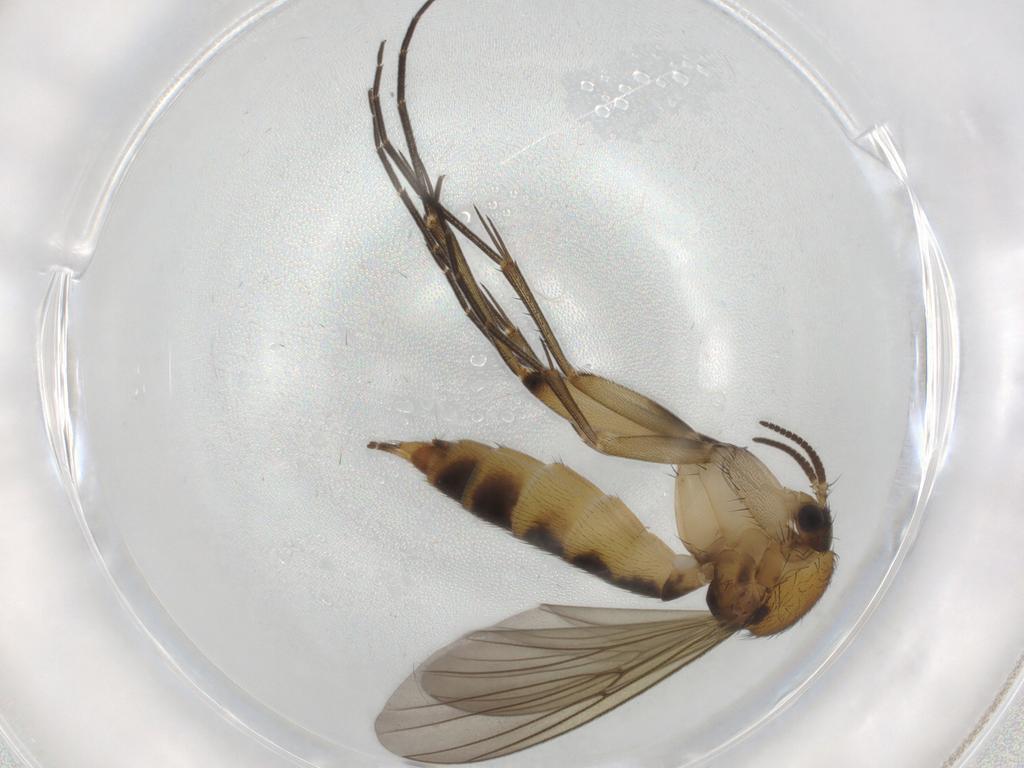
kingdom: Animalia
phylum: Arthropoda
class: Insecta
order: Diptera
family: Mycetophilidae
